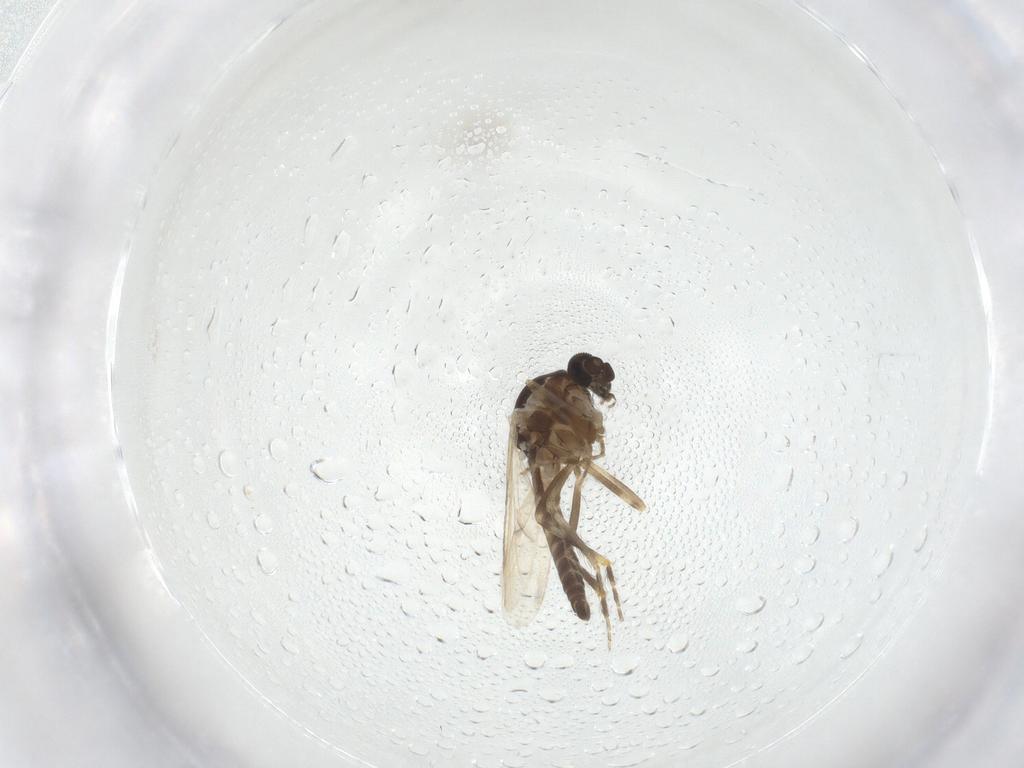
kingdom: Animalia
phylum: Arthropoda
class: Insecta
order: Diptera
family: Ceratopogonidae
